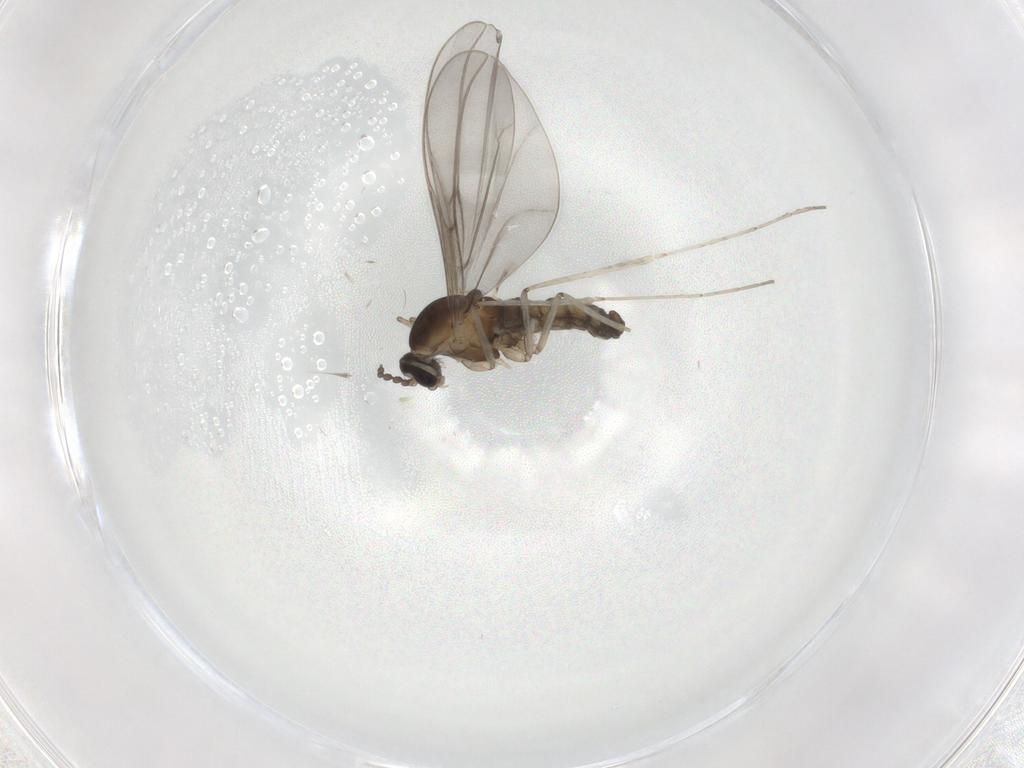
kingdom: Animalia
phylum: Arthropoda
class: Insecta
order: Diptera
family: Cecidomyiidae
